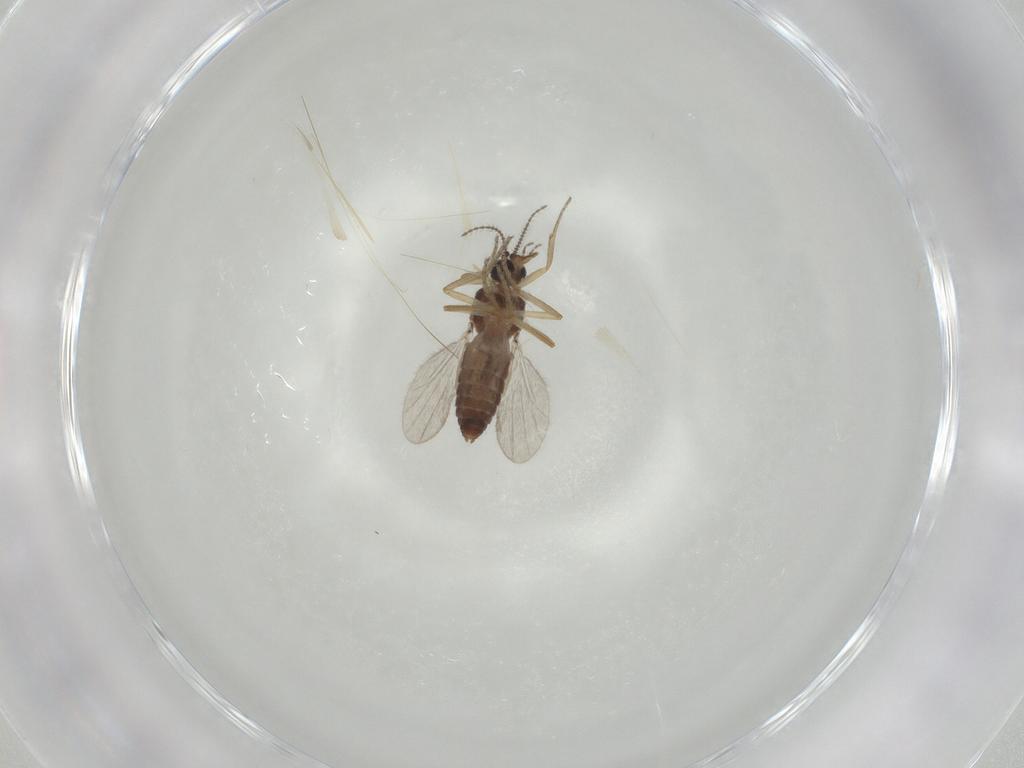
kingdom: Animalia
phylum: Arthropoda
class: Insecta
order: Diptera
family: Ceratopogonidae
